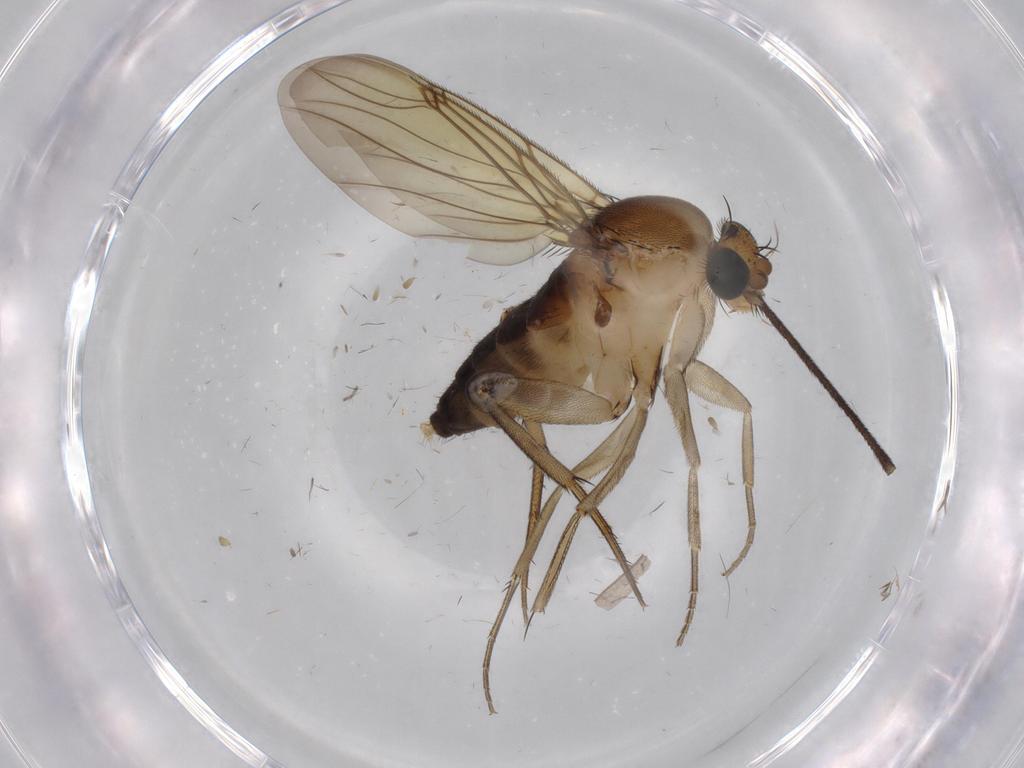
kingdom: Animalia
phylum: Arthropoda
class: Insecta
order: Diptera
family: Phoridae
